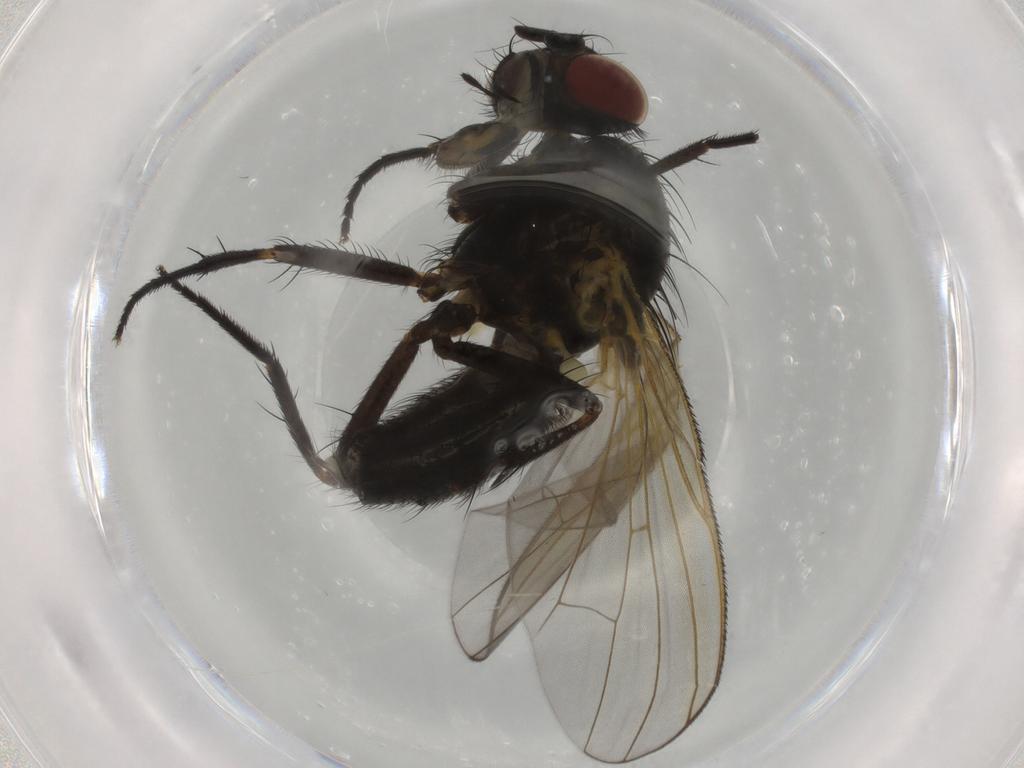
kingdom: Animalia
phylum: Arthropoda
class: Insecta
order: Diptera
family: Fannia
